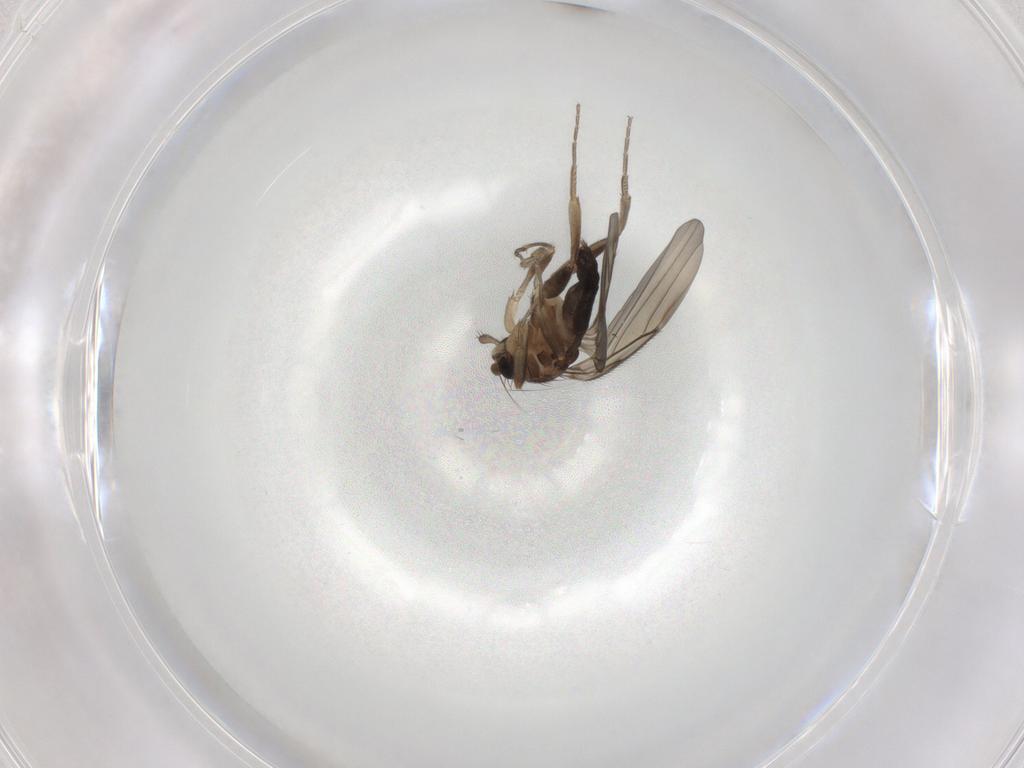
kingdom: Animalia
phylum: Arthropoda
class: Insecta
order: Diptera
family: Phoridae
